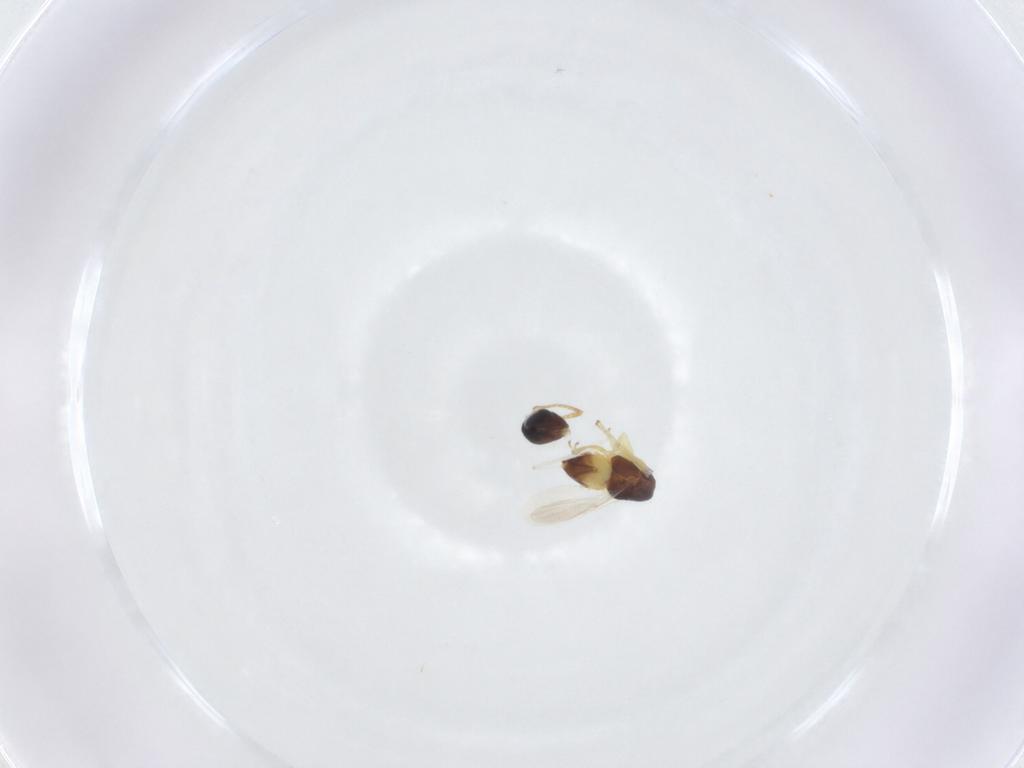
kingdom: Animalia
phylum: Arthropoda
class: Insecta
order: Hymenoptera
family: Encyrtidae
